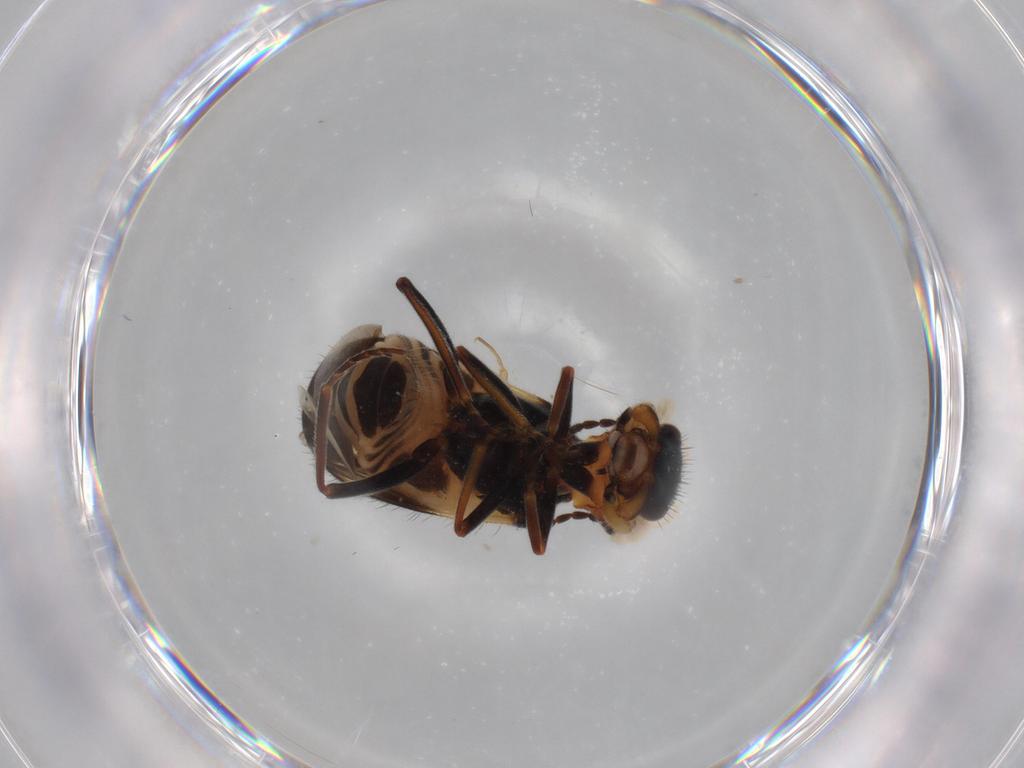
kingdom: Animalia
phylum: Arthropoda
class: Insecta
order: Coleoptera
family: Melyridae
